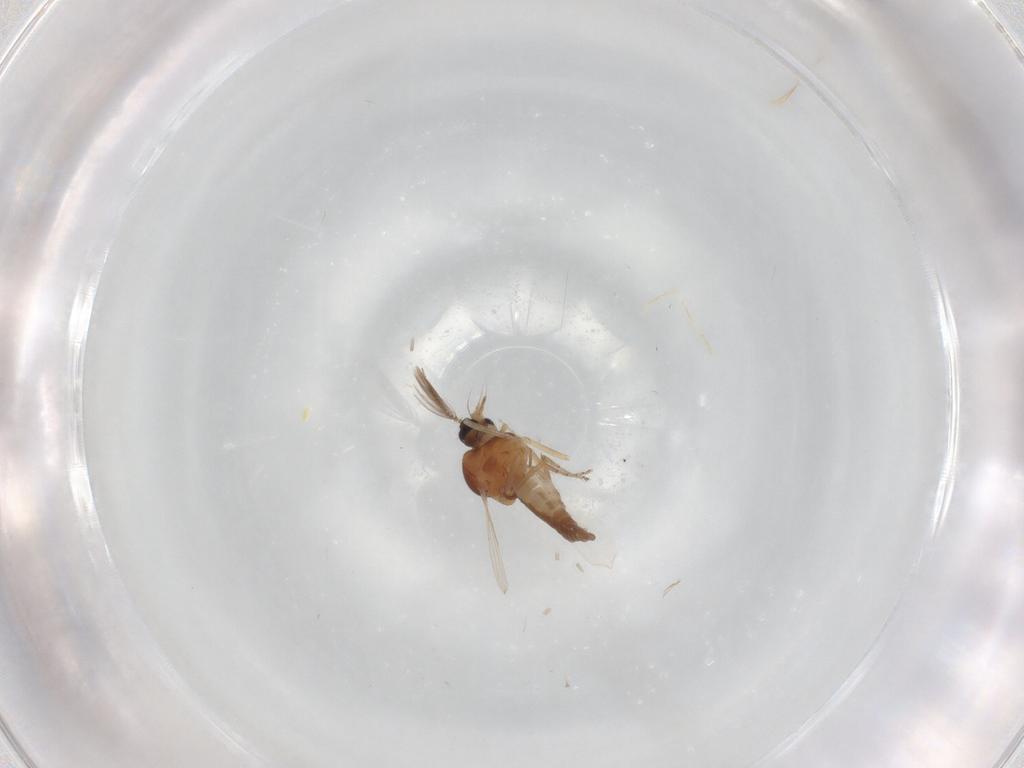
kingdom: Animalia
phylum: Arthropoda
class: Insecta
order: Diptera
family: Ceratopogonidae
